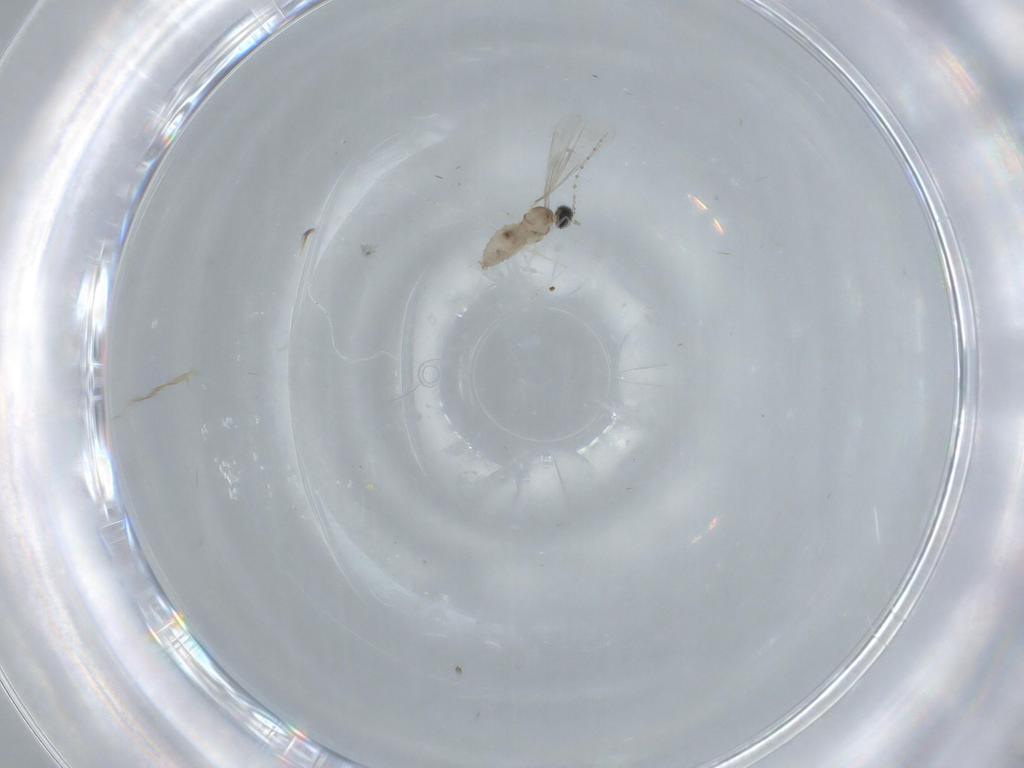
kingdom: Animalia
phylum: Arthropoda
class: Insecta
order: Diptera
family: Cecidomyiidae
